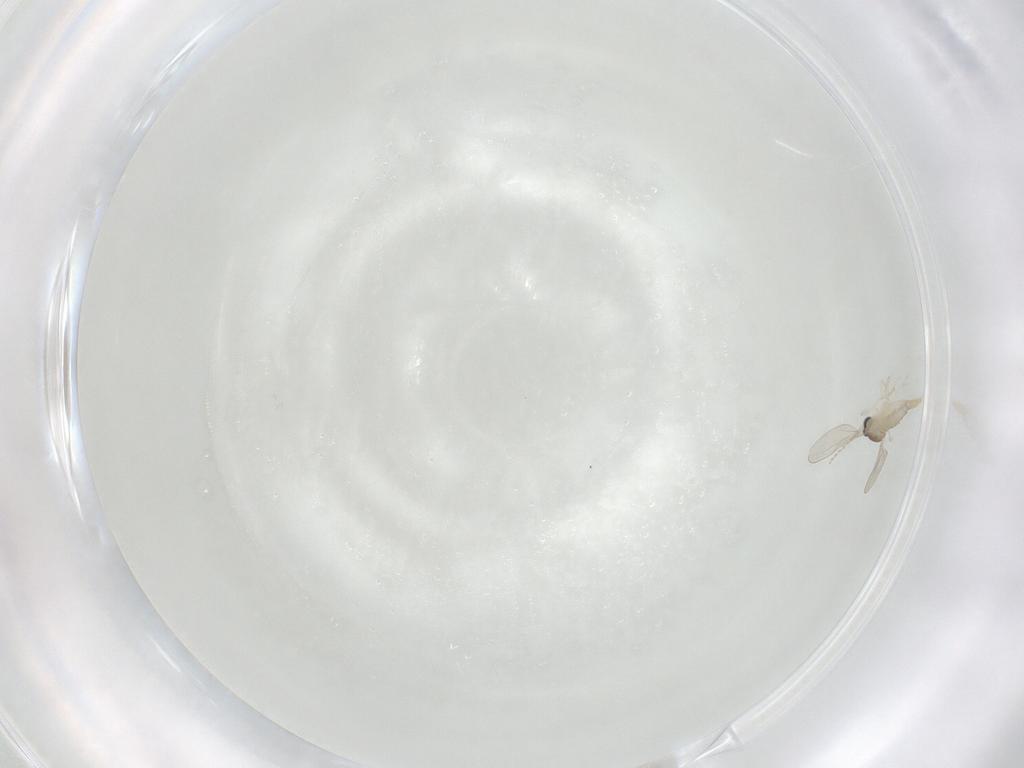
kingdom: Animalia
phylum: Arthropoda
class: Insecta
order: Diptera
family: Cecidomyiidae
